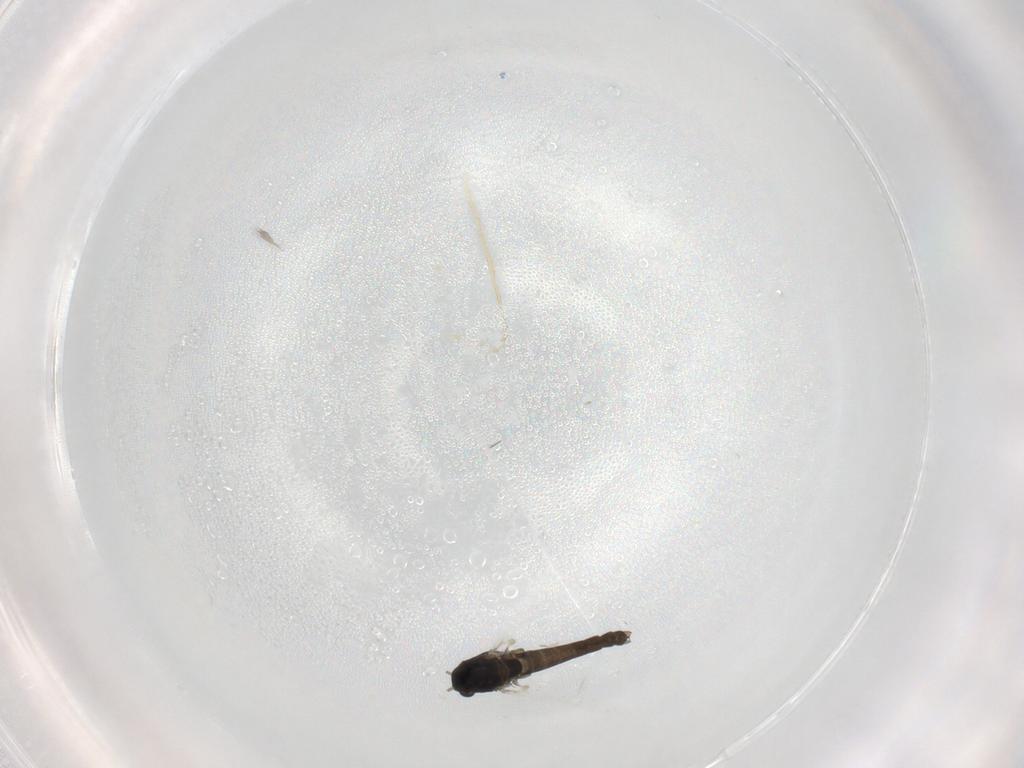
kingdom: Animalia
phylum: Arthropoda
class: Insecta
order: Diptera
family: Chironomidae
